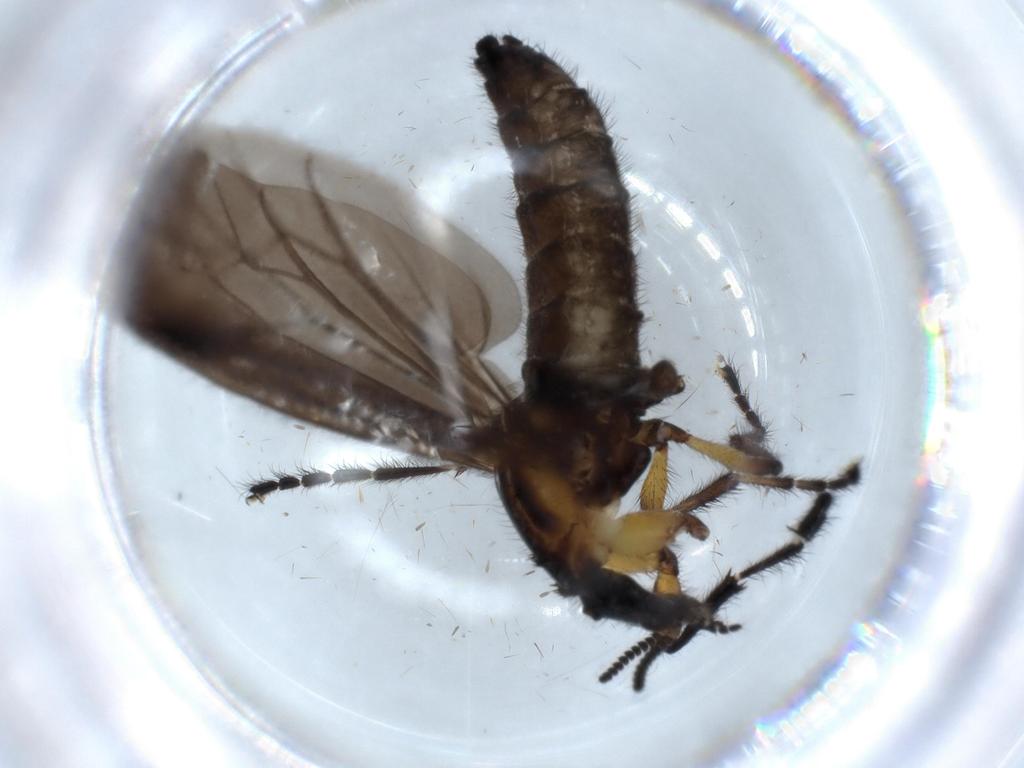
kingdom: Animalia
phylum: Arthropoda
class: Insecta
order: Diptera
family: Bibionidae
